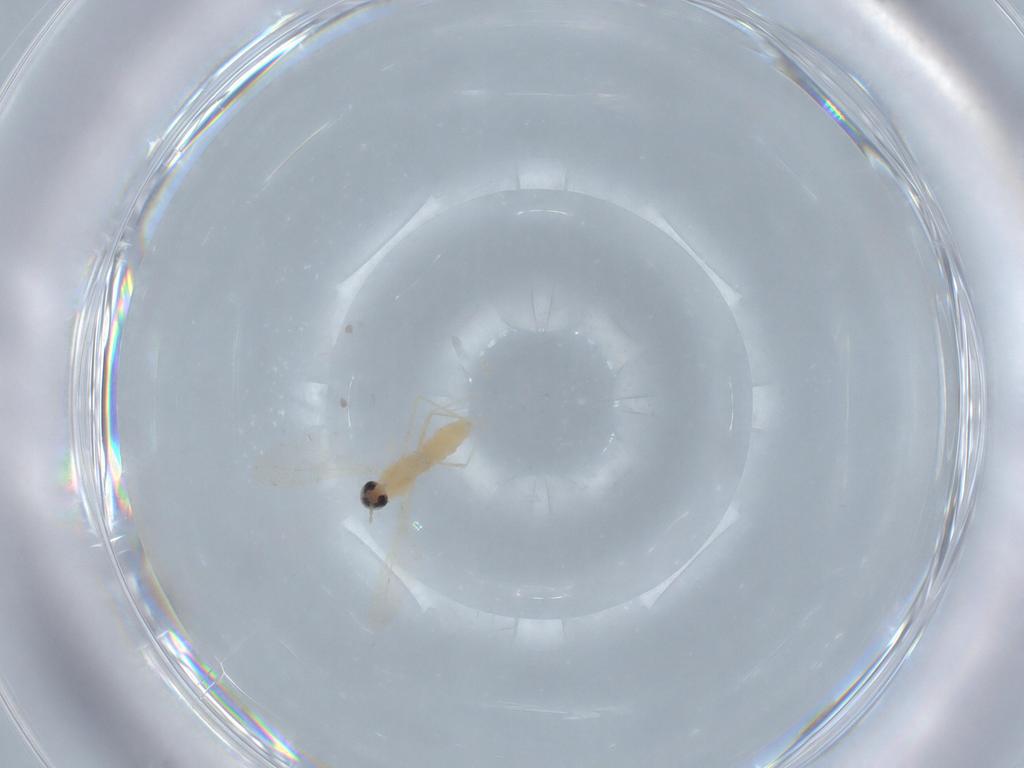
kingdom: Animalia
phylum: Arthropoda
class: Insecta
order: Diptera
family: Cecidomyiidae
